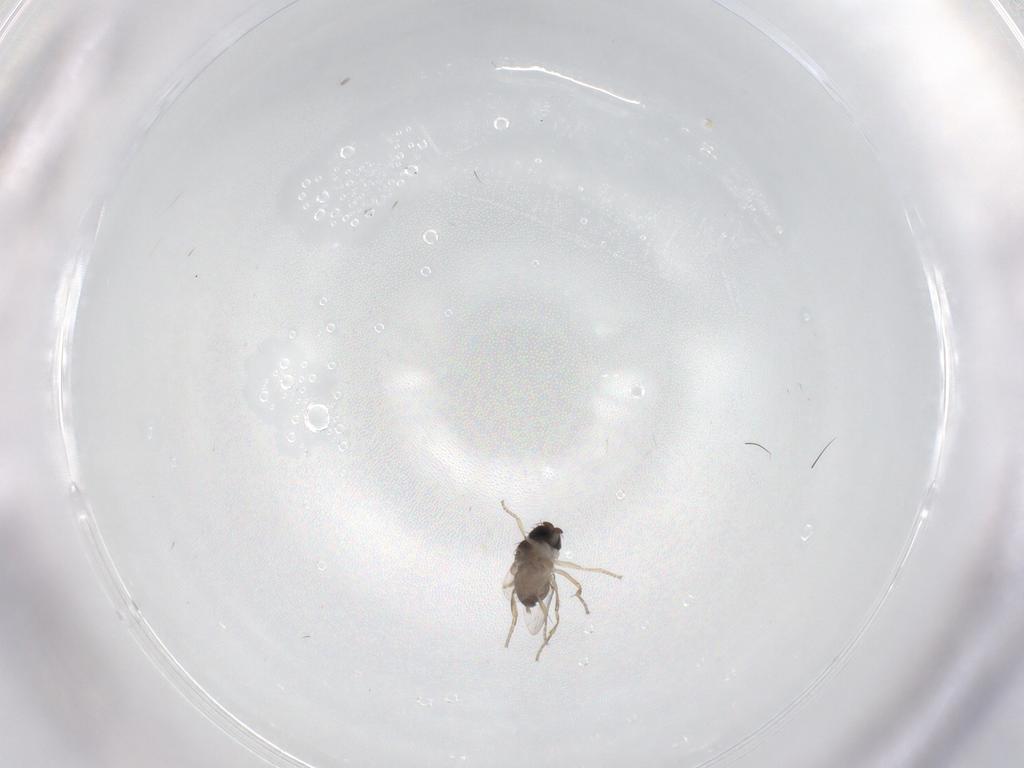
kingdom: Animalia
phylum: Arthropoda
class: Insecta
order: Diptera
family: Phoridae
